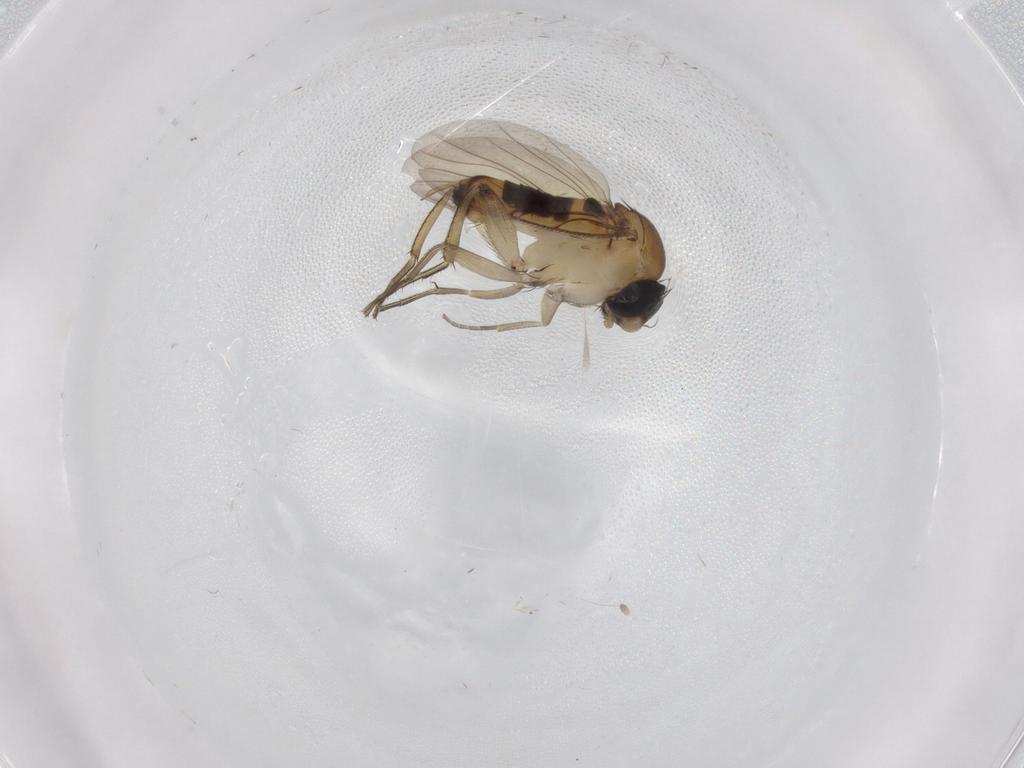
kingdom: Animalia
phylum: Arthropoda
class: Insecta
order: Diptera
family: Phoridae
